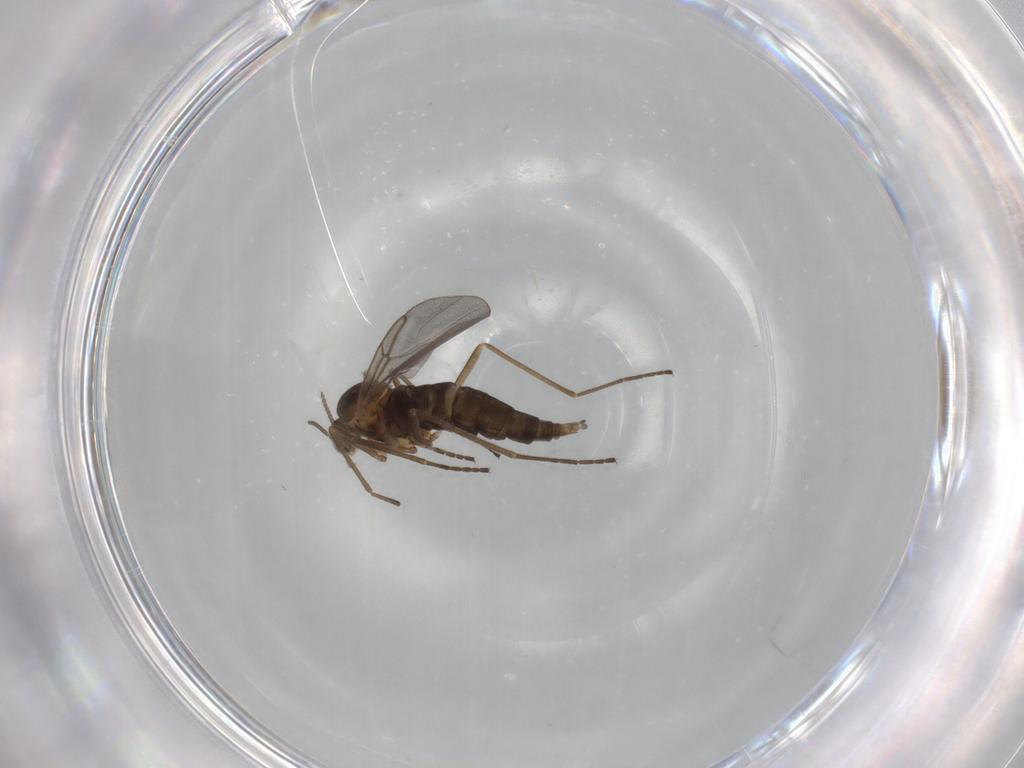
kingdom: Animalia
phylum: Arthropoda
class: Insecta
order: Diptera
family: Cecidomyiidae
